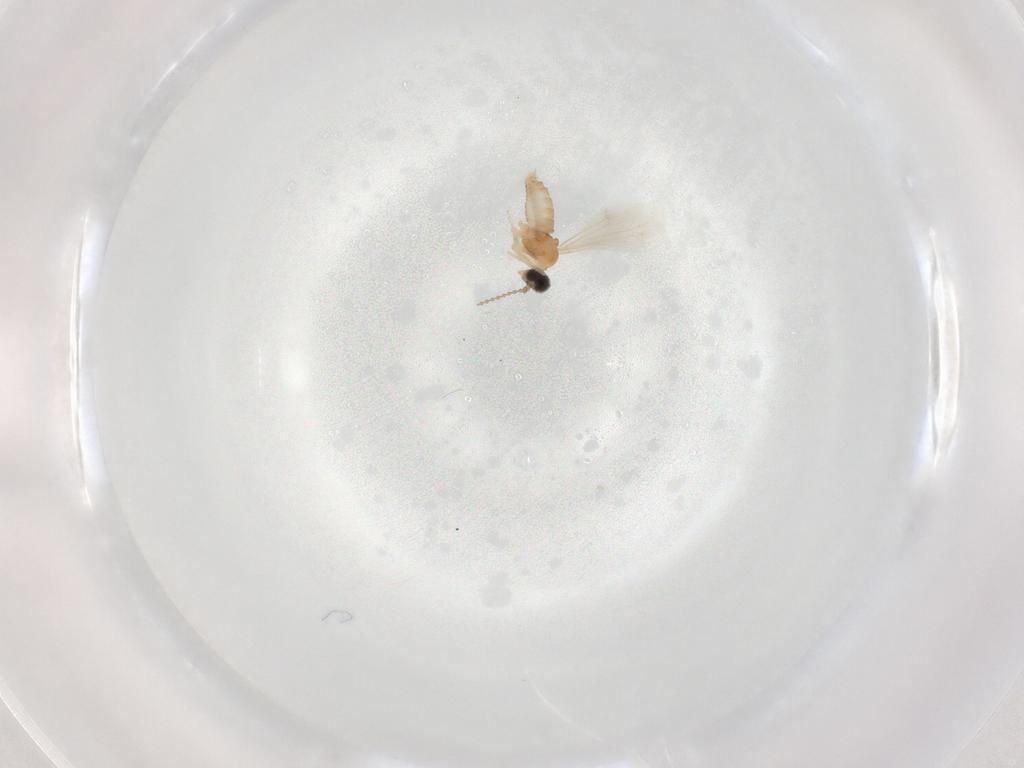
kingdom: Animalia
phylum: Arthropoda
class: Insecta
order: Diptera
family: Cecidomyiidae
